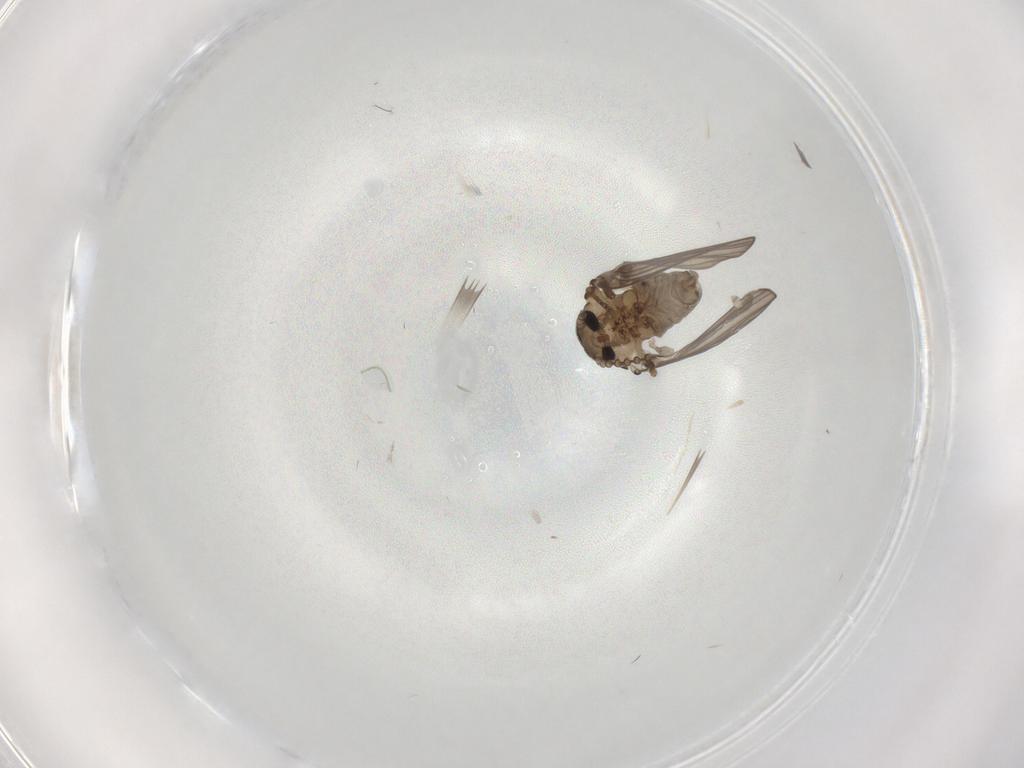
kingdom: Animalia
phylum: Arthropoda
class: Insecta
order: Diptera
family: Psychodidae
